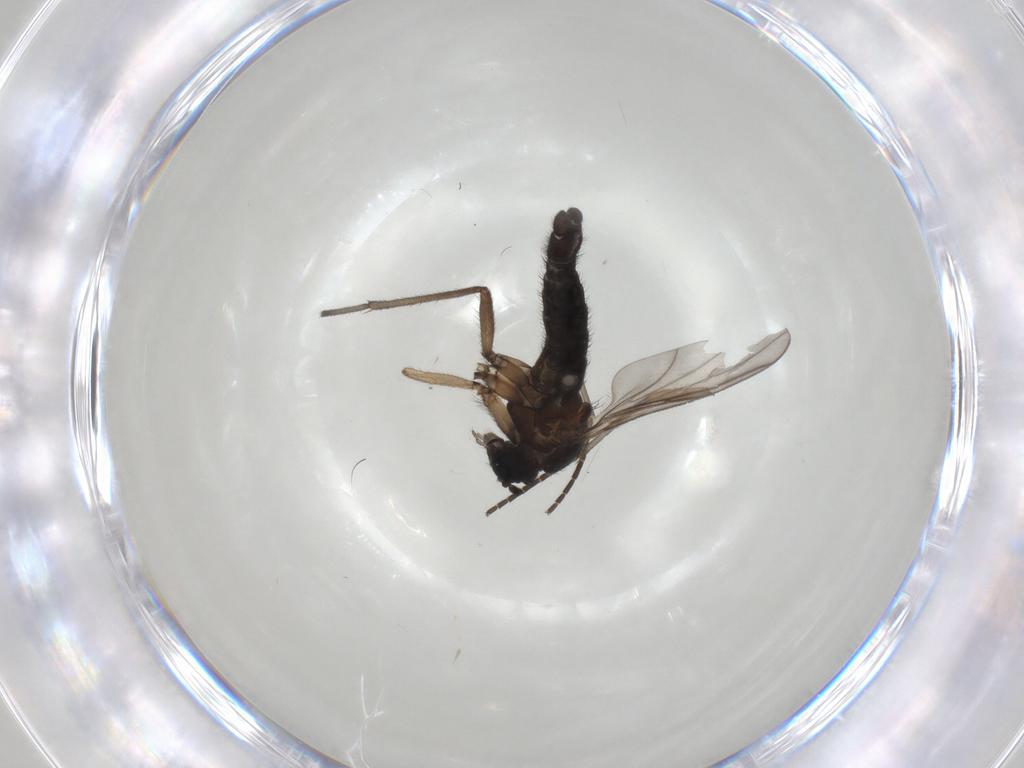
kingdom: Animalia
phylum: Arthropoda
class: Insecta
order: Diptera
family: Sciaridae
